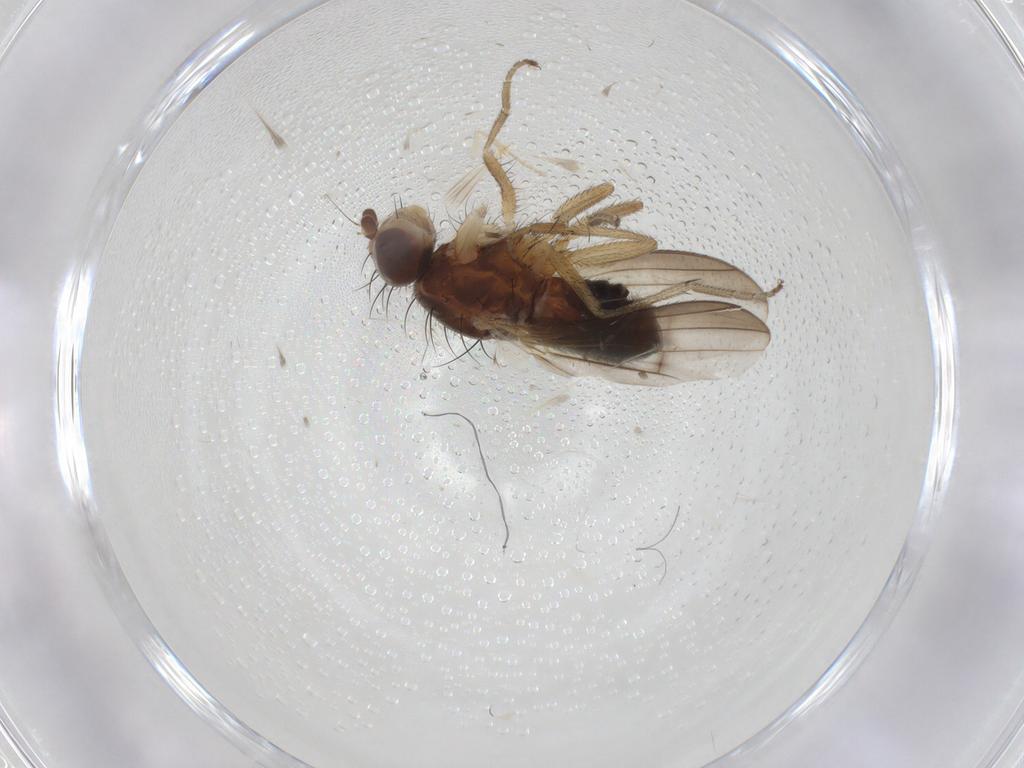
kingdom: Animalia
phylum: Arthropoda
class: Insecta
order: Diptera
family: Heleomyzidae
